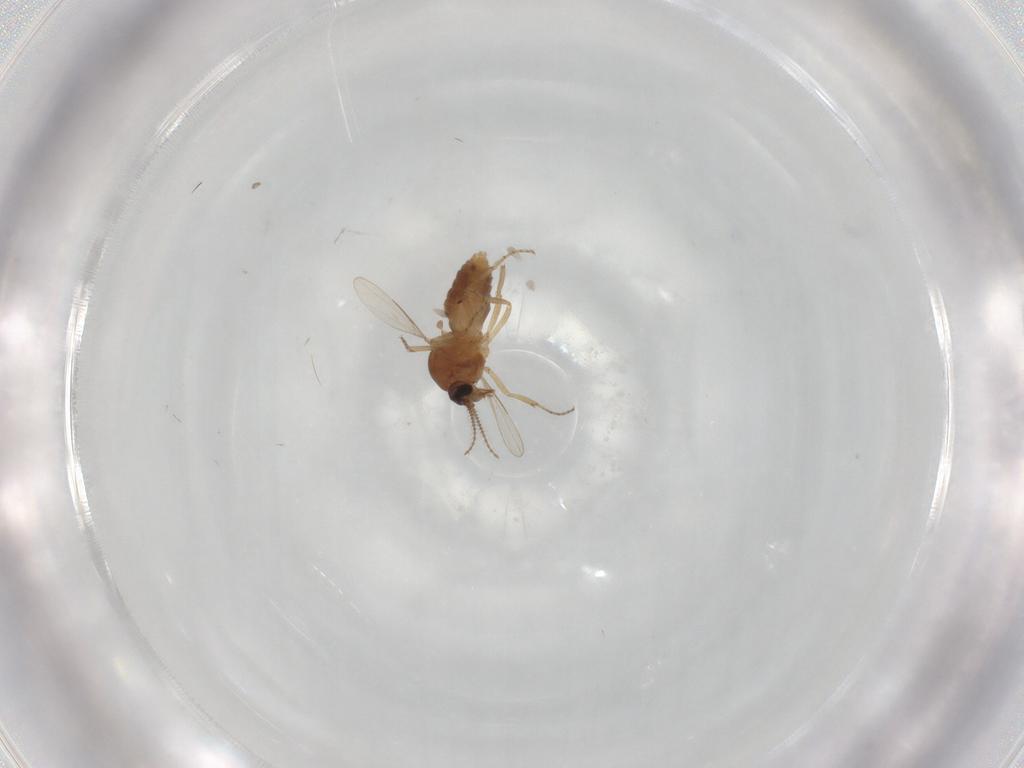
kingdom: Animalia
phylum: Arthropoda
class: Insecta
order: Diptera
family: Ceratopogonidae
